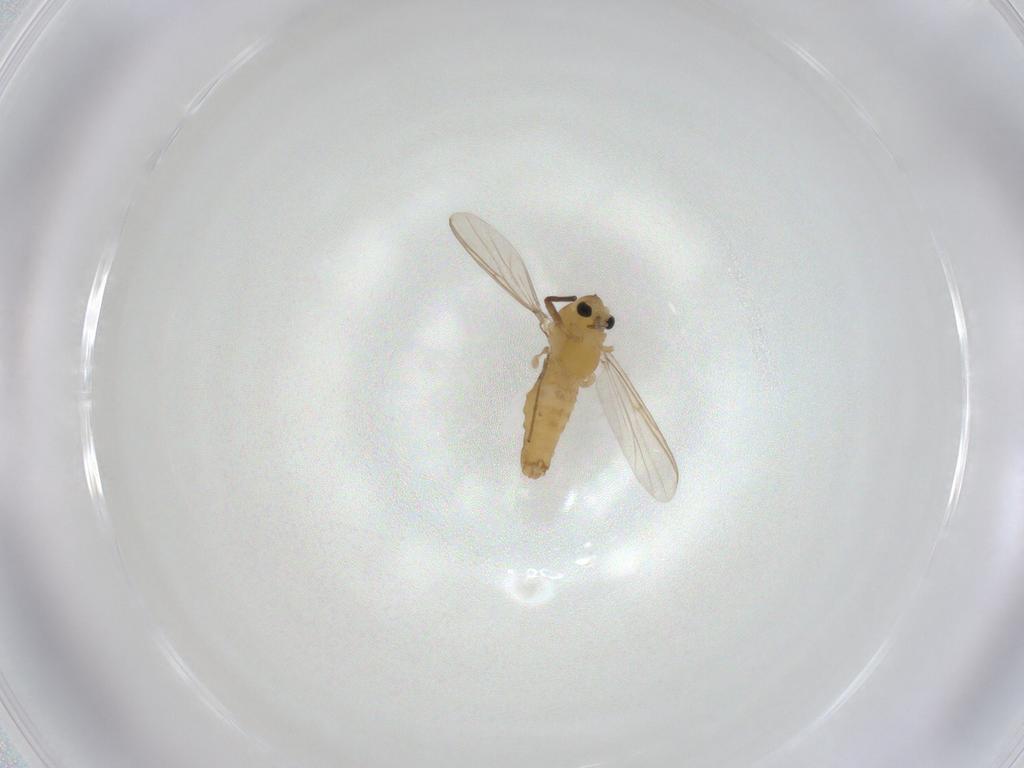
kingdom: Animalia
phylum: Arthropoda
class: Insecta
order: Diptera
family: Chironomidae
